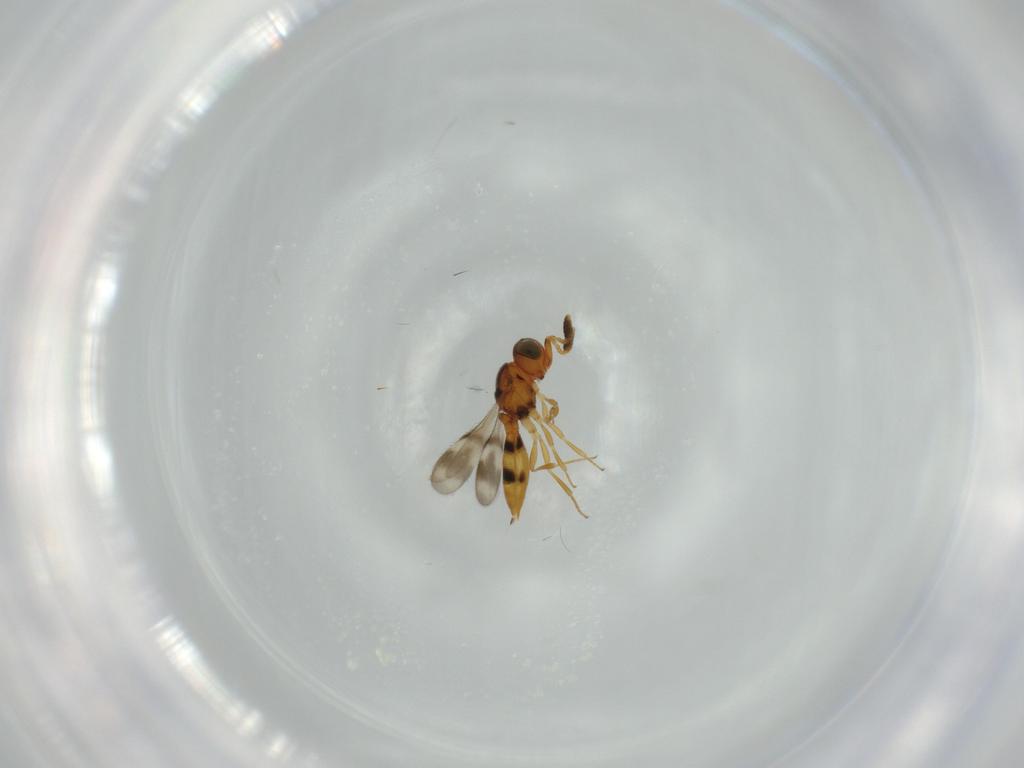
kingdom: Animalia
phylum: Arthropoda
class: Insecta
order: Hymenoptera
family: Scelionidae
